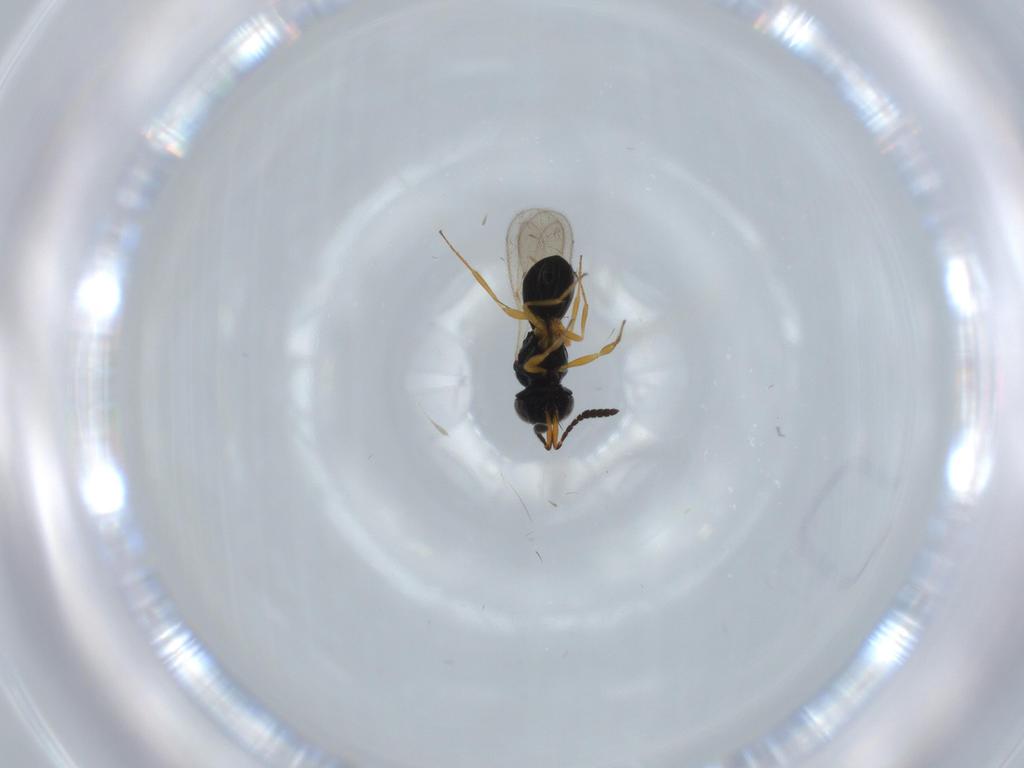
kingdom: Animalia
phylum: Arthropoda
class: Insecta
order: Hymenoptera
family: Scelionidae
